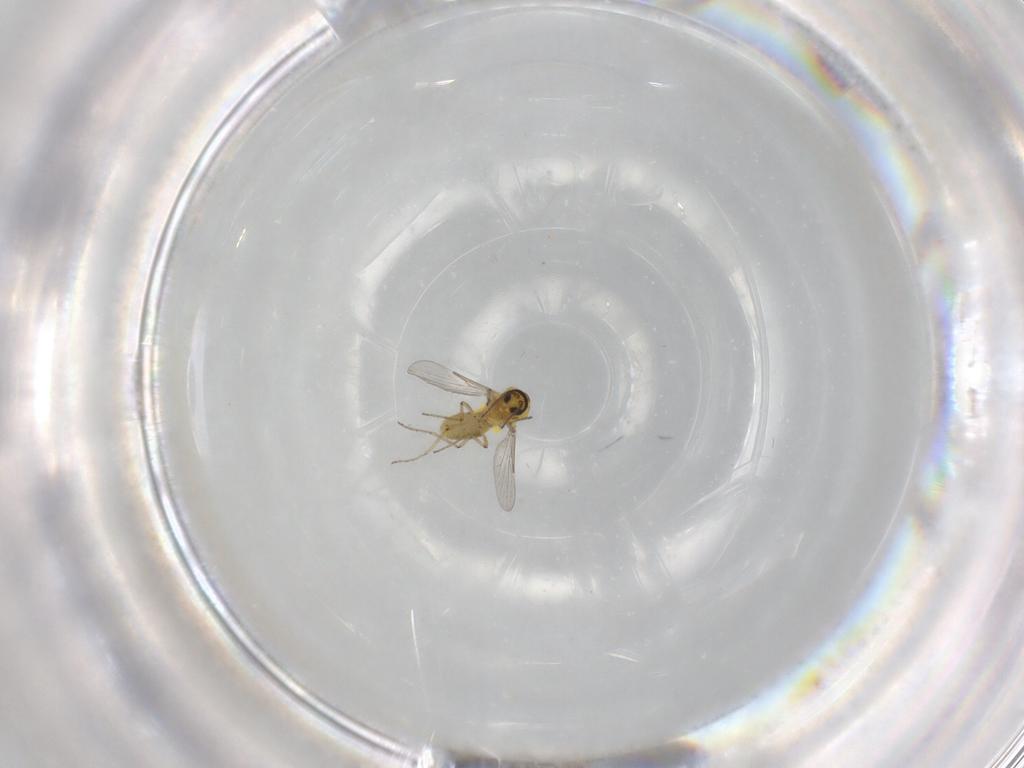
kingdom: Animalia
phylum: Arthropoda
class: Insecta
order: Diptera
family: Ceratopogonidae
